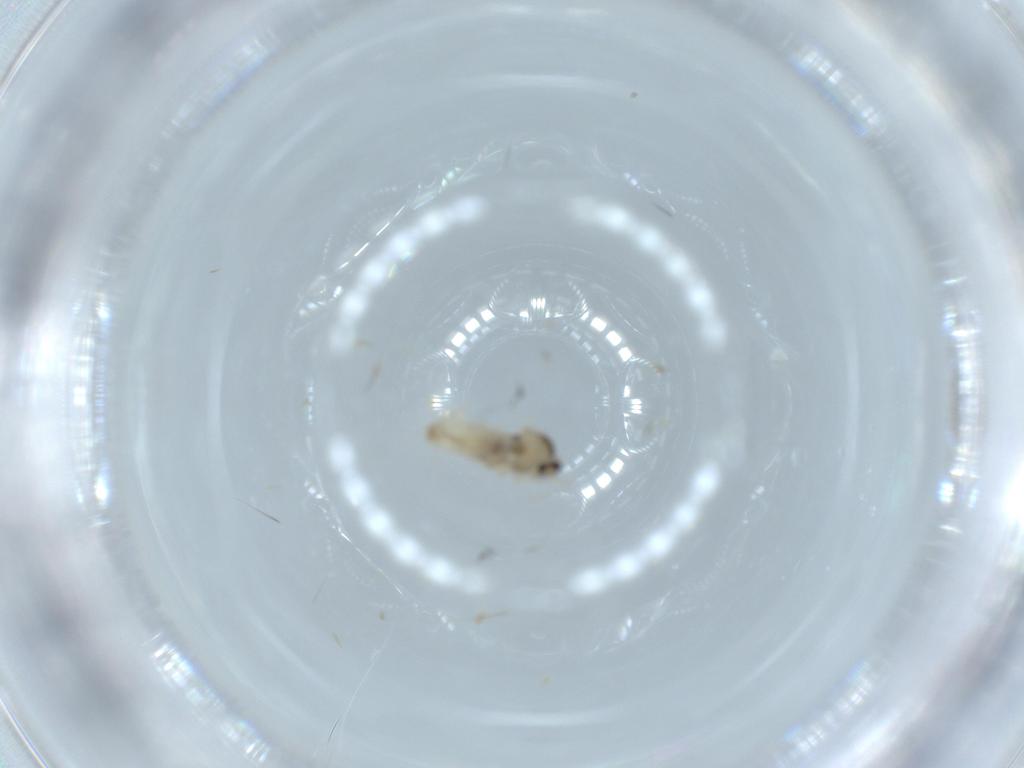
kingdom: Animalia
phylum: Arthropoda
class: Insecta
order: Diptera
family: Cecidomyiidae
